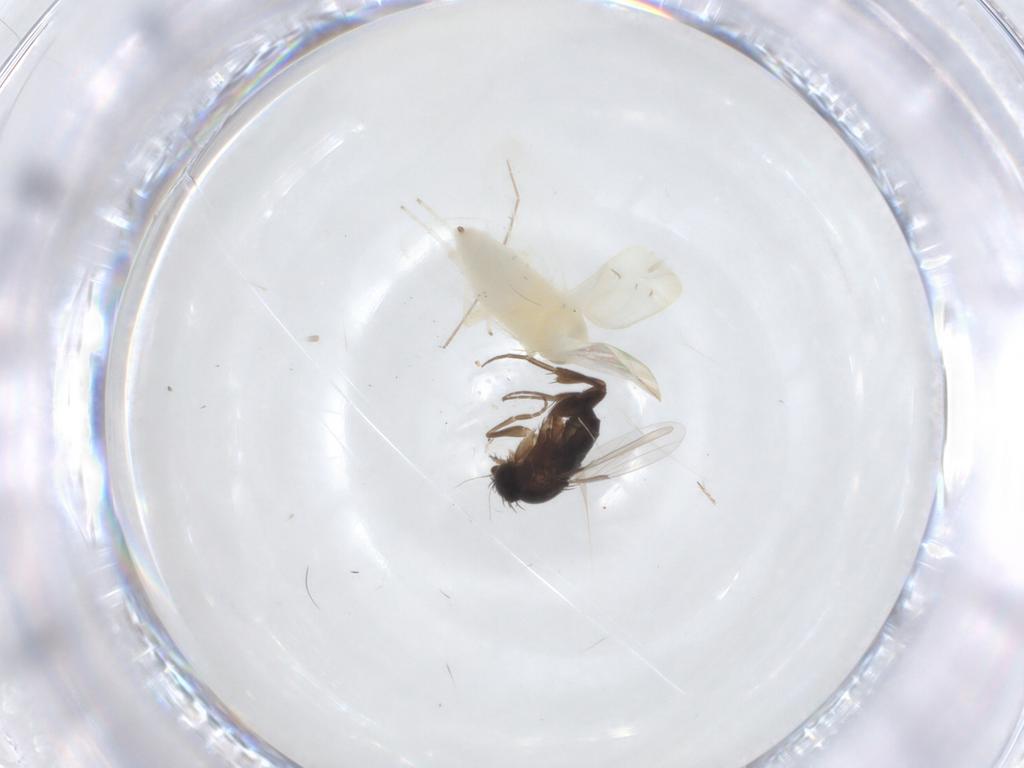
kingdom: Animalia
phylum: Arthropoda
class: Insecta
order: Hemiptera
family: Cicadellidae
